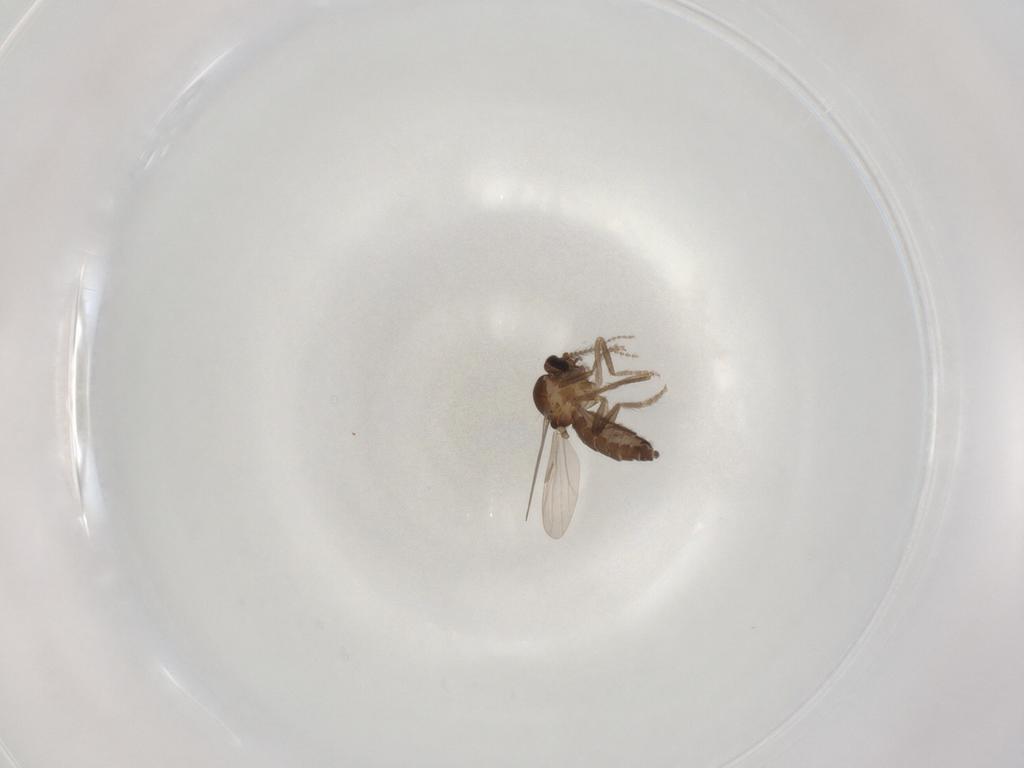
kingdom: Animalia
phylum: Arthropoda
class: Insecta
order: Diptera
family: Ceratopogonidae
